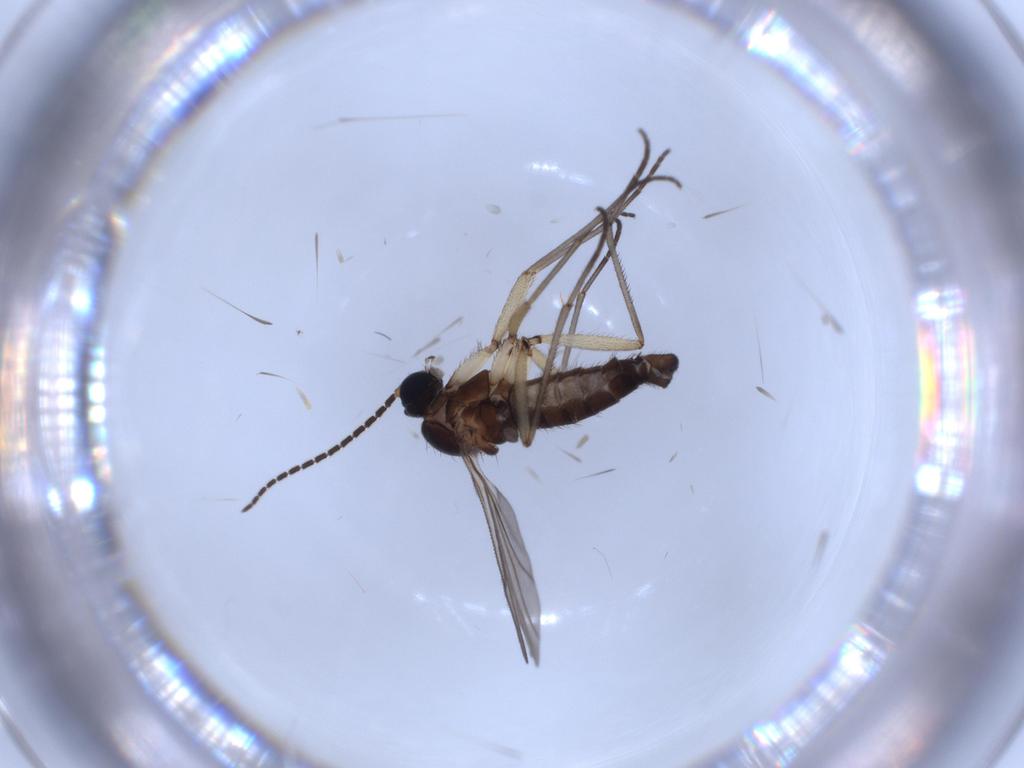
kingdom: Animalia
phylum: Arthropoda
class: Insecta
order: Diptera
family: Sciaridae
